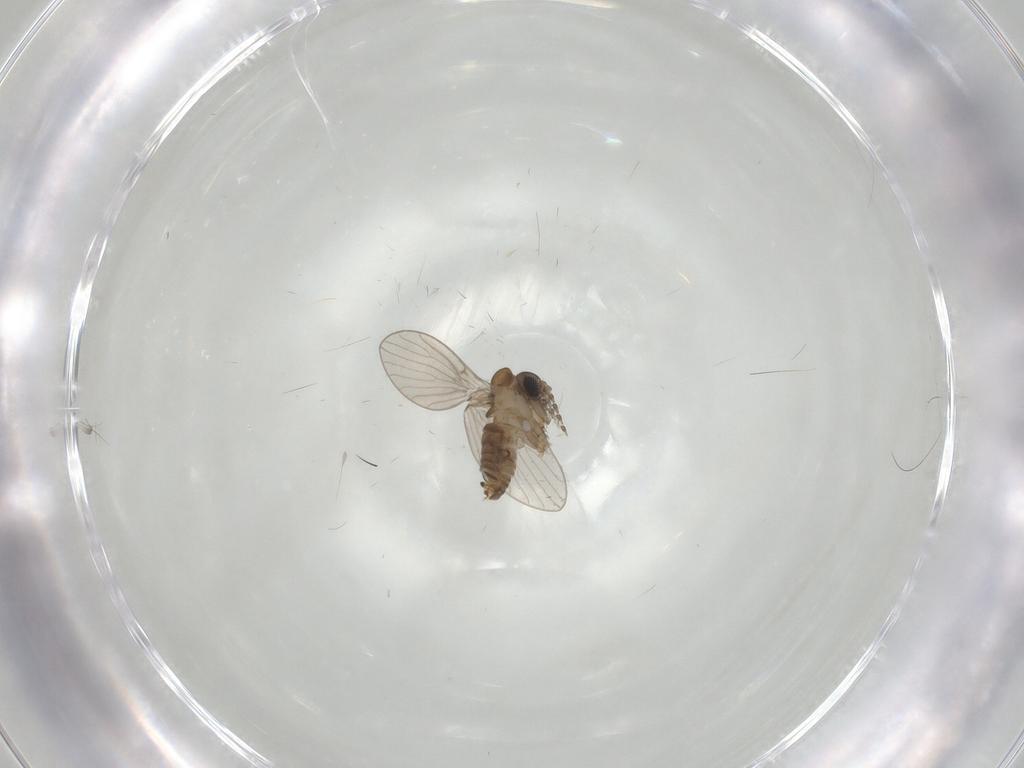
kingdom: Animalia
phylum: Arthropoda
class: Insecta
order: Diptera
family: Ceratopogonidae
